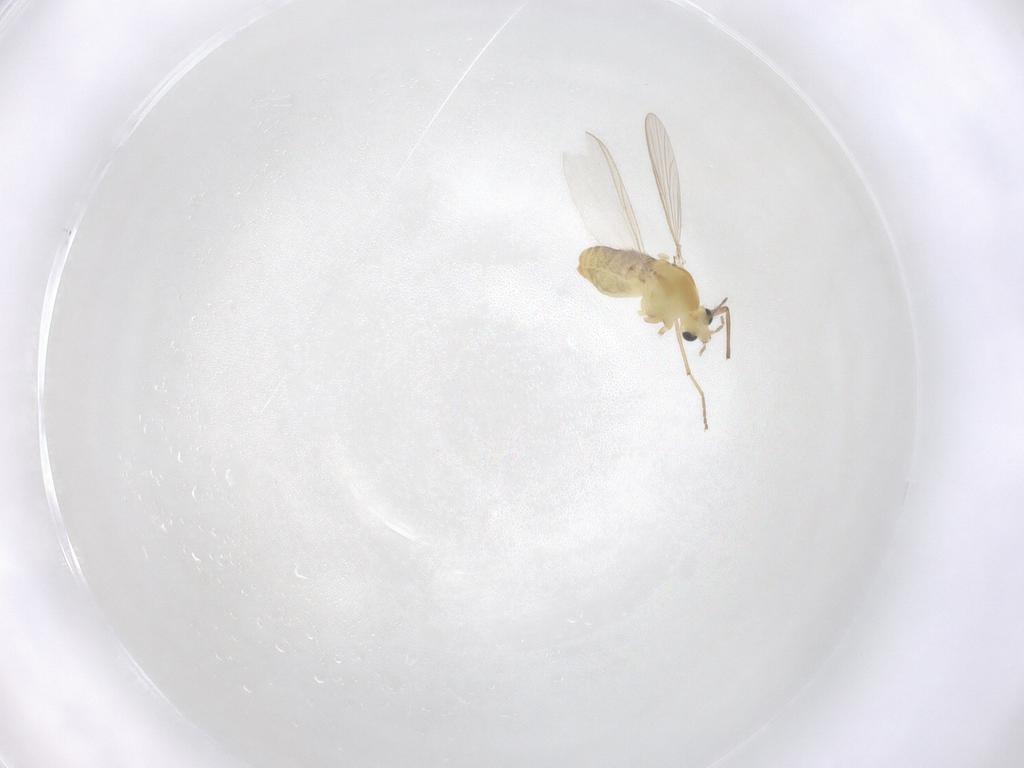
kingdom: Animalia
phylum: Arthropoda
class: Insecta
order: Diptera
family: Chironomidae
